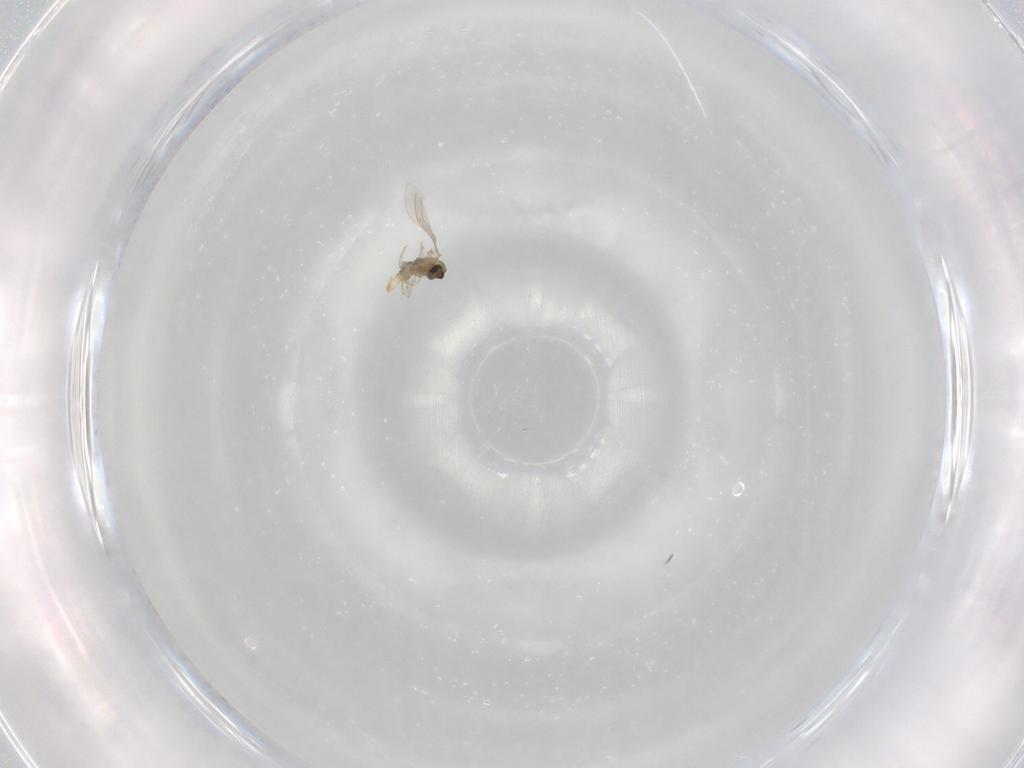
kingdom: Animalia
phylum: Arthropoda
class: Insecta
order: Diptera
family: Cecidomyiidae
